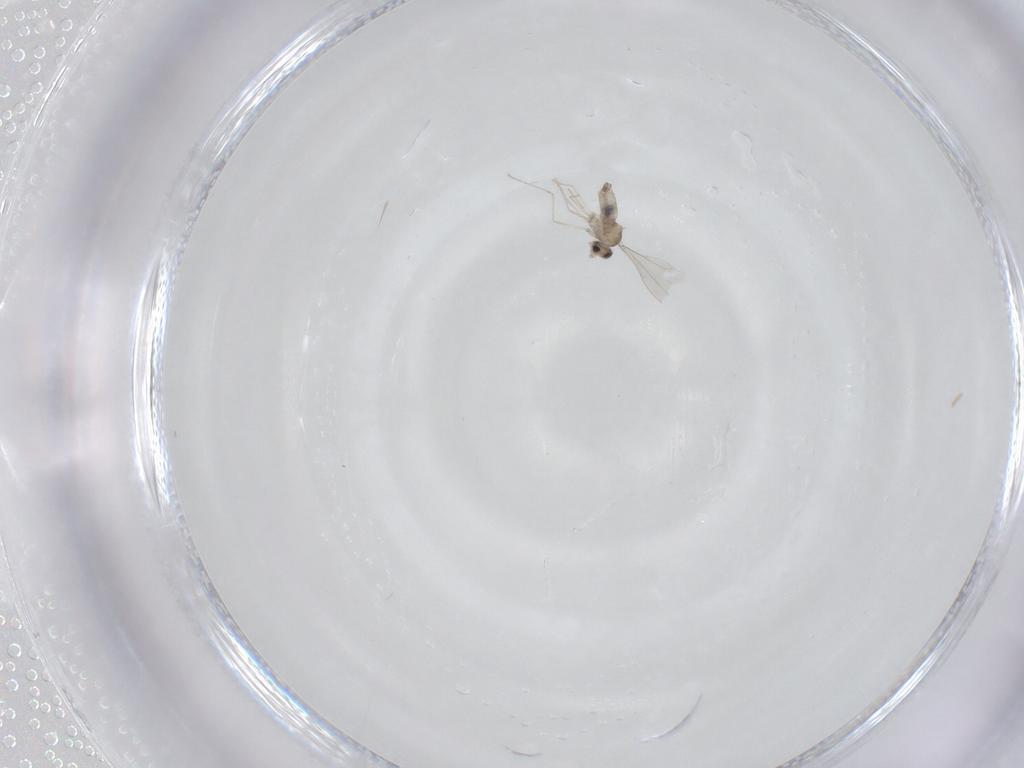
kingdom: Animalia
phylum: Arthropoda
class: Insecta
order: Diptera
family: Cecidomyiidae
